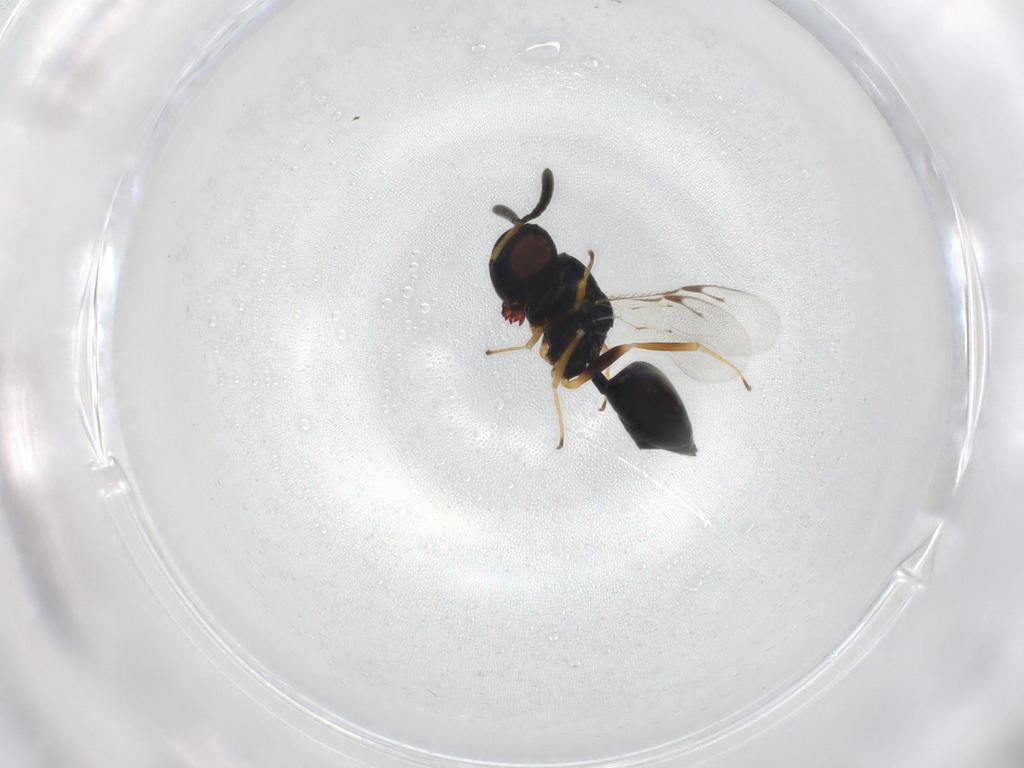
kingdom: Animalia
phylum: Arthropoda
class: Insecta
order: Hymenoptera
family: Pteromalidae
